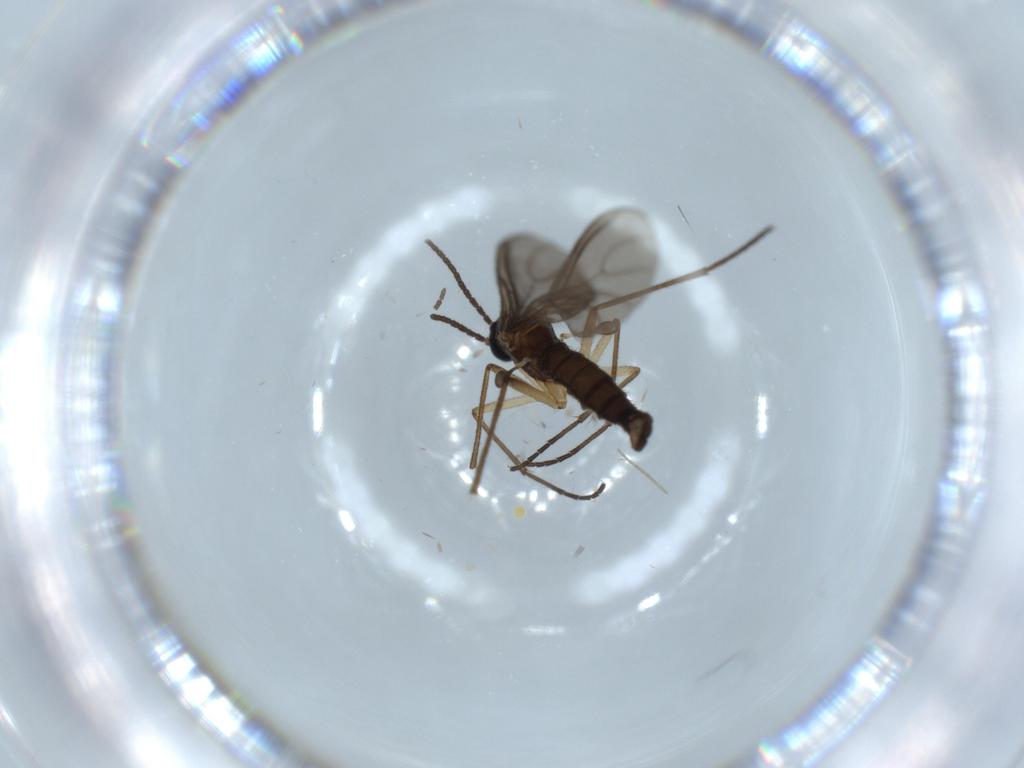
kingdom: Animalia
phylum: Arthropoda
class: Insecta
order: Diptera
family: Sciaridae
